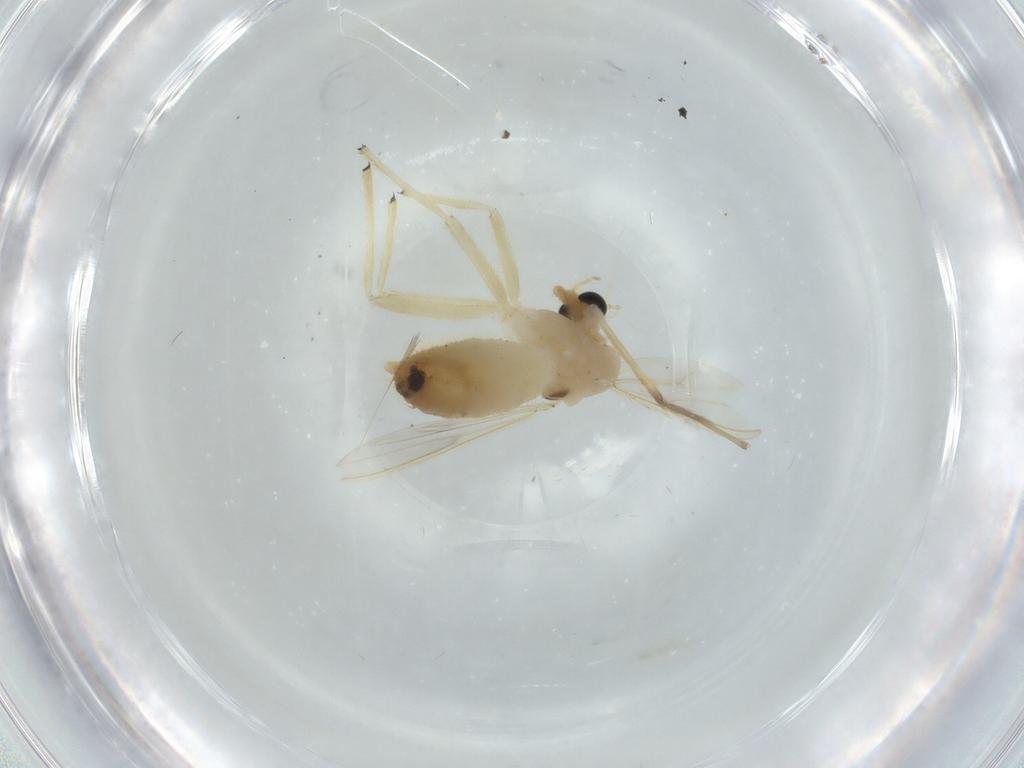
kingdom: Animalia
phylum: Arthropoda
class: Insecta
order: Diptera
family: Chironomidae
